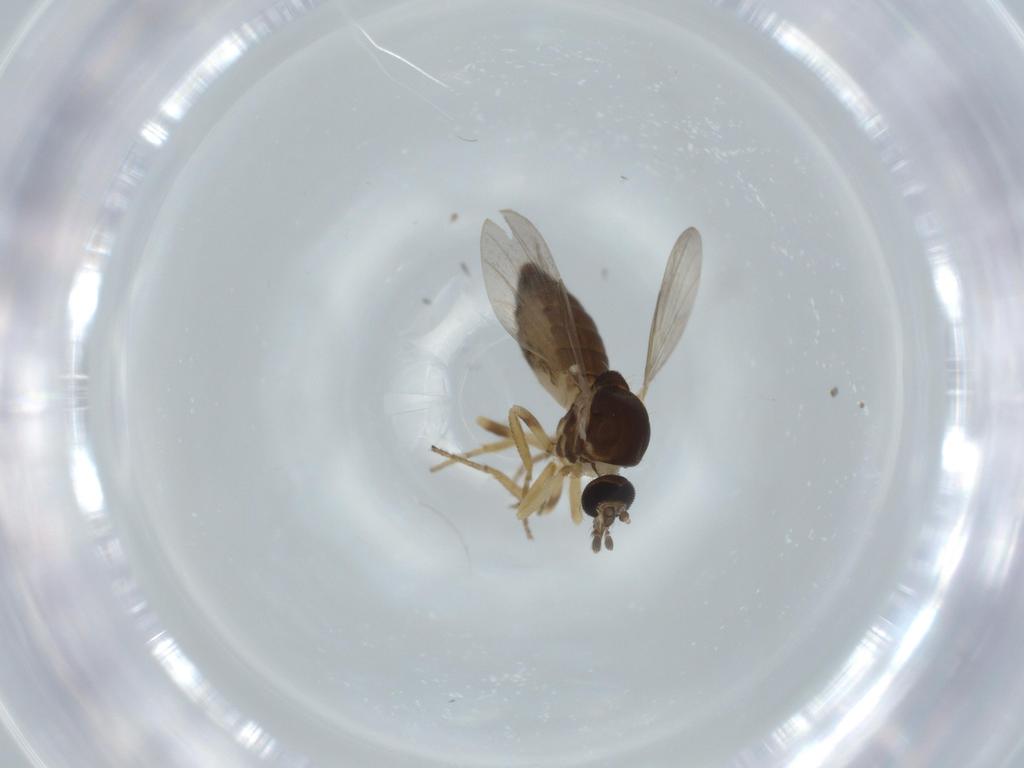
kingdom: Animalia
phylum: Arthropoda
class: Insecta
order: Diptera
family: Ceratopogonidae
